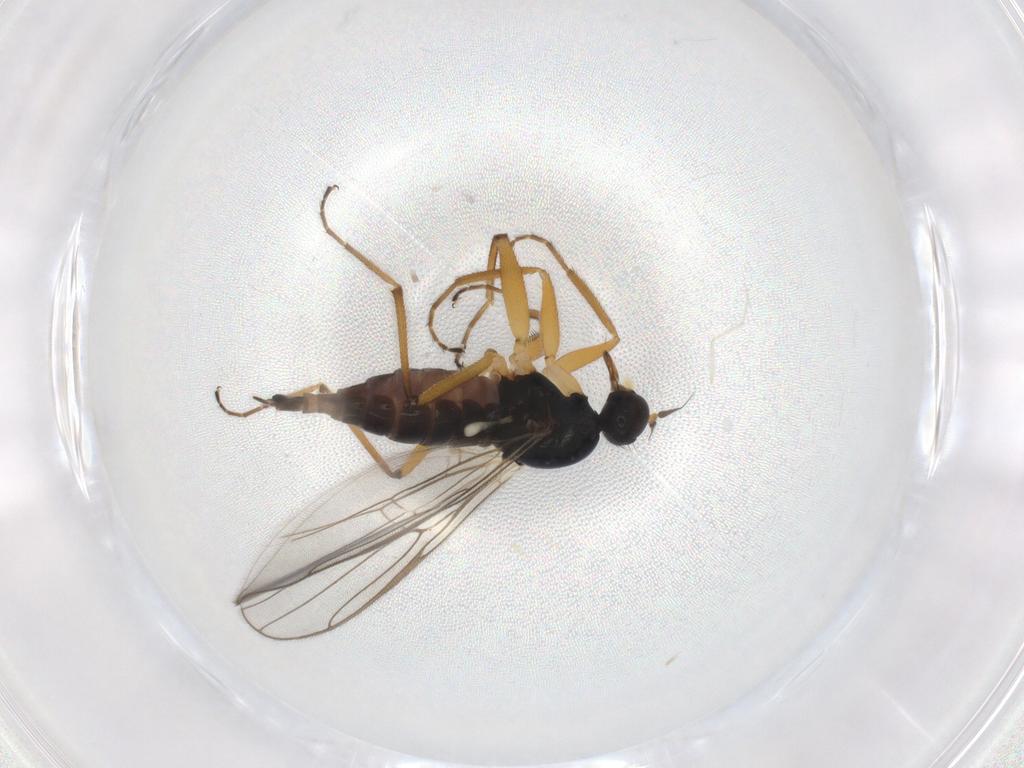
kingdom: Animalia
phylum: Arthropoda
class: Insecta
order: Diptera
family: Hybotidae
